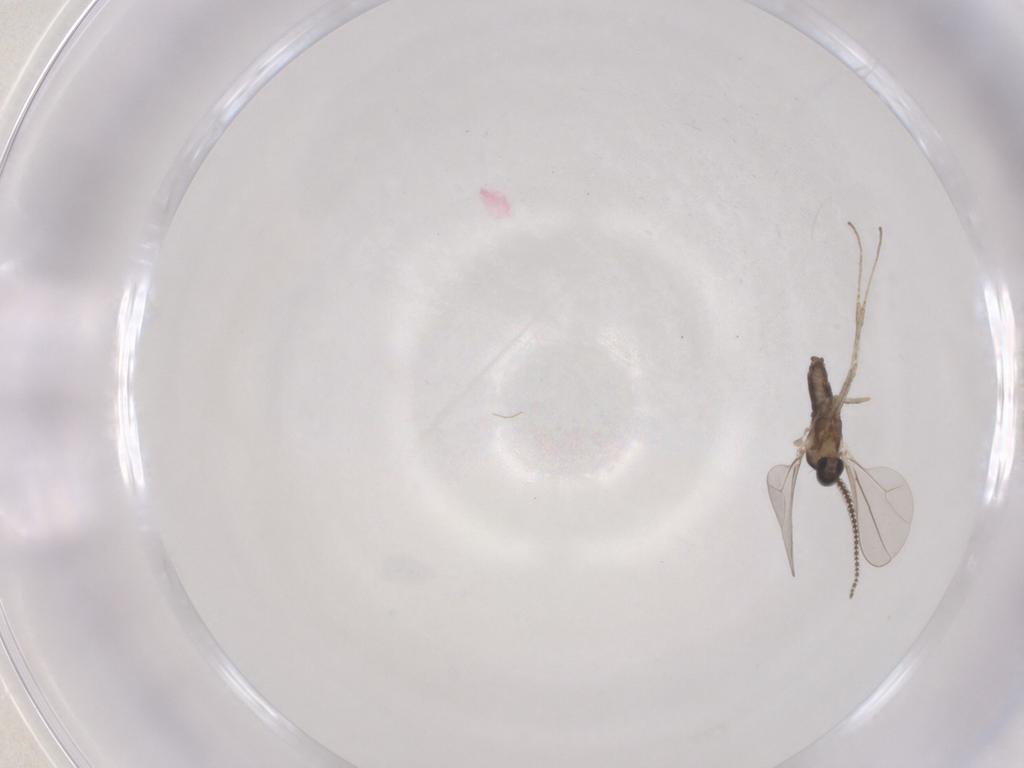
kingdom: Animalia
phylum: Arthropoda
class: Insecta
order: Diptera
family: Cecidomyiidae
